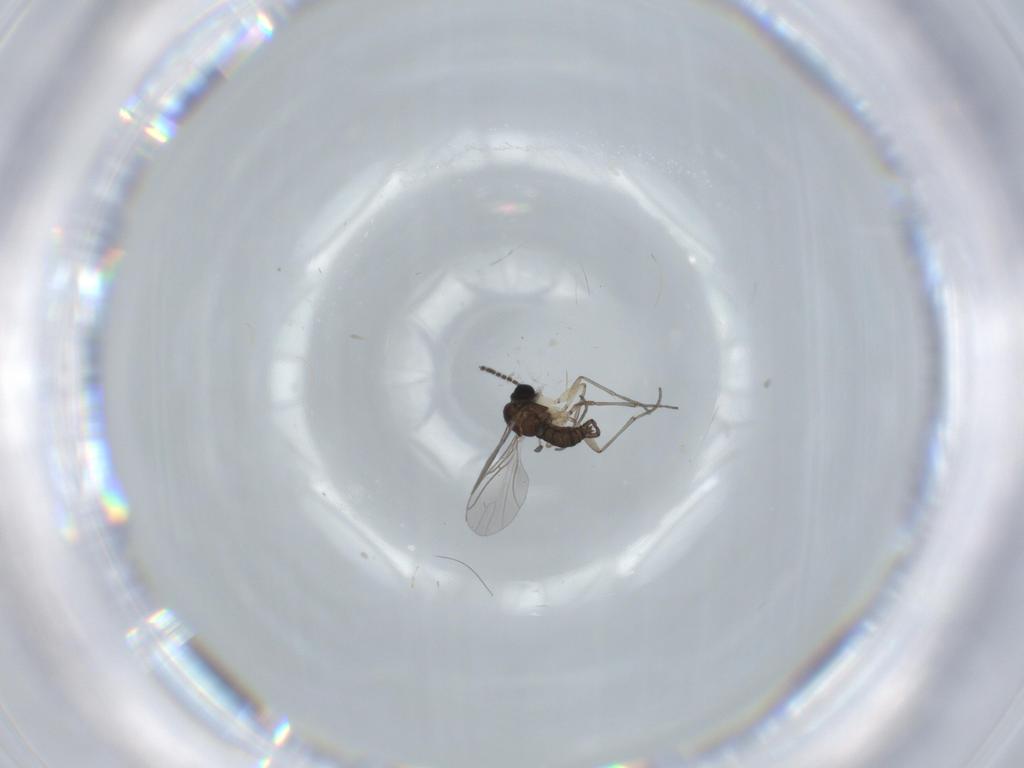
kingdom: Animalia
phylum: Arthropoda
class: Insecta
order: Diptera
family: Sciaridae
